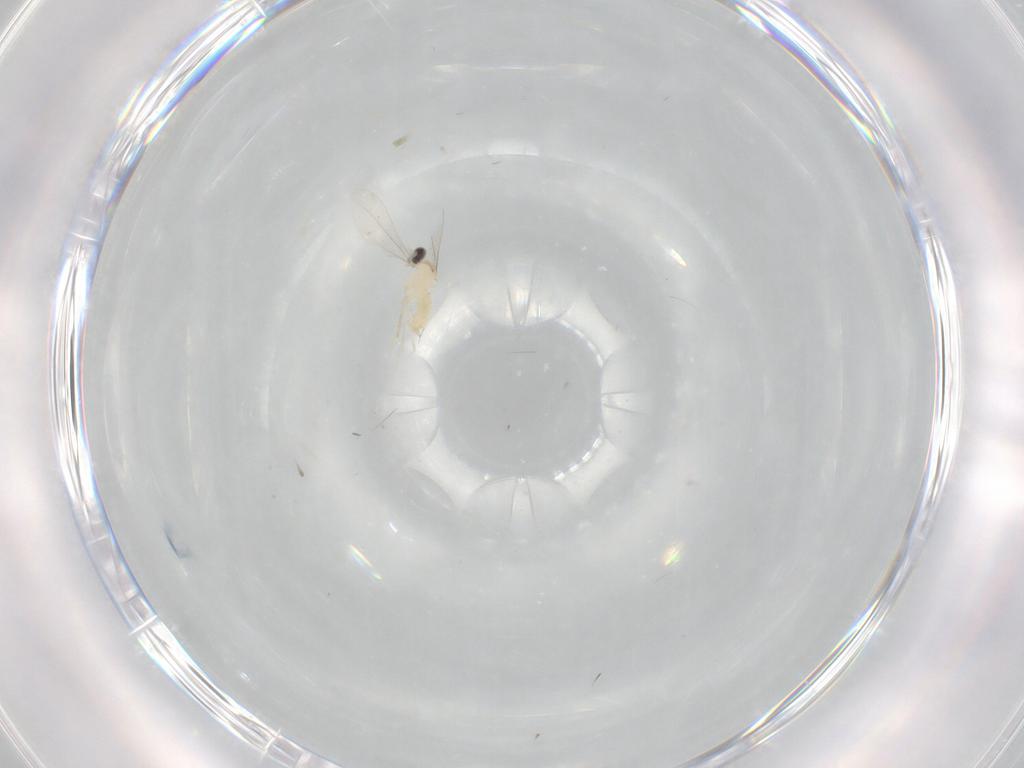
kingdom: Animalia
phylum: Arthropoda
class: Insecta
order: Diptera
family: Cecidomyiidae
